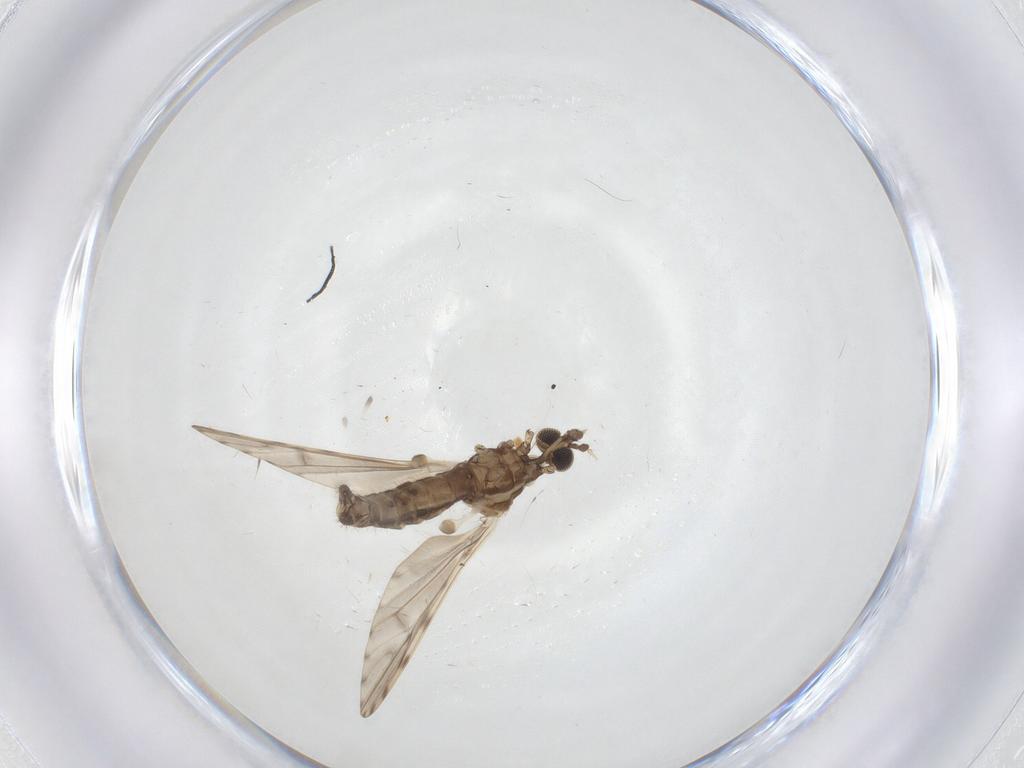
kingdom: Animalia
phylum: Arthropoda
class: Insecta
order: Diptera
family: Limoniidae
